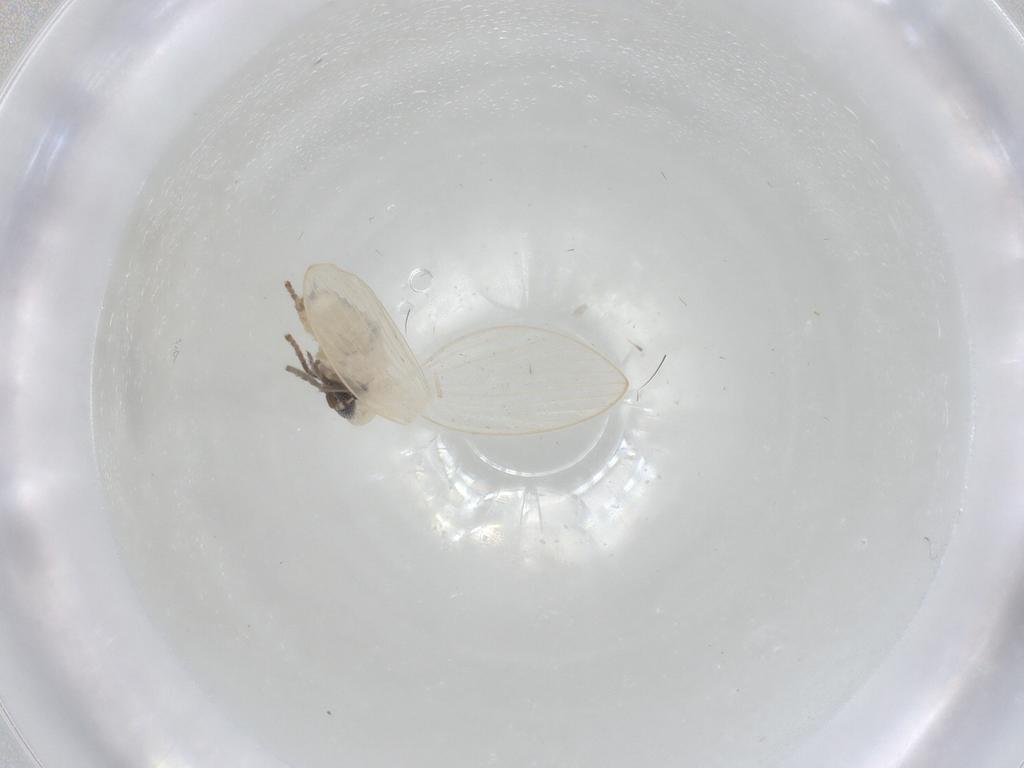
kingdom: Animalia
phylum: Arthropoda
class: Insecta
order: Diptera
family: Psychodidae
